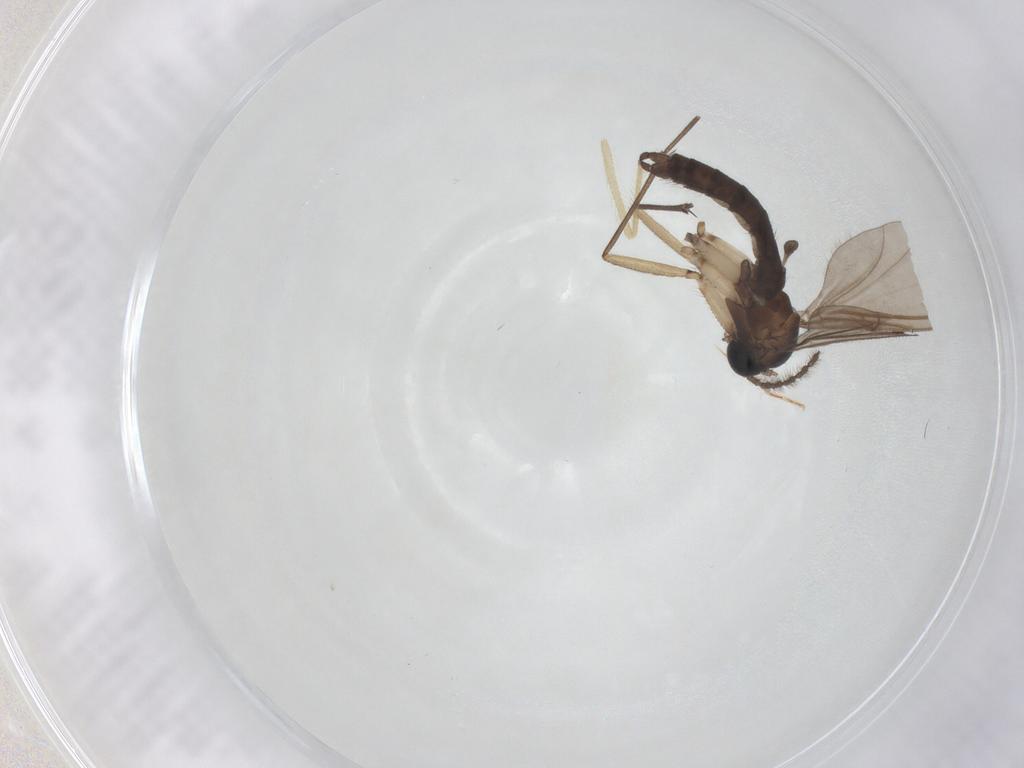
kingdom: Animalia
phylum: Arthropoda
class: Insecta
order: Diptera
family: Sciaridae
